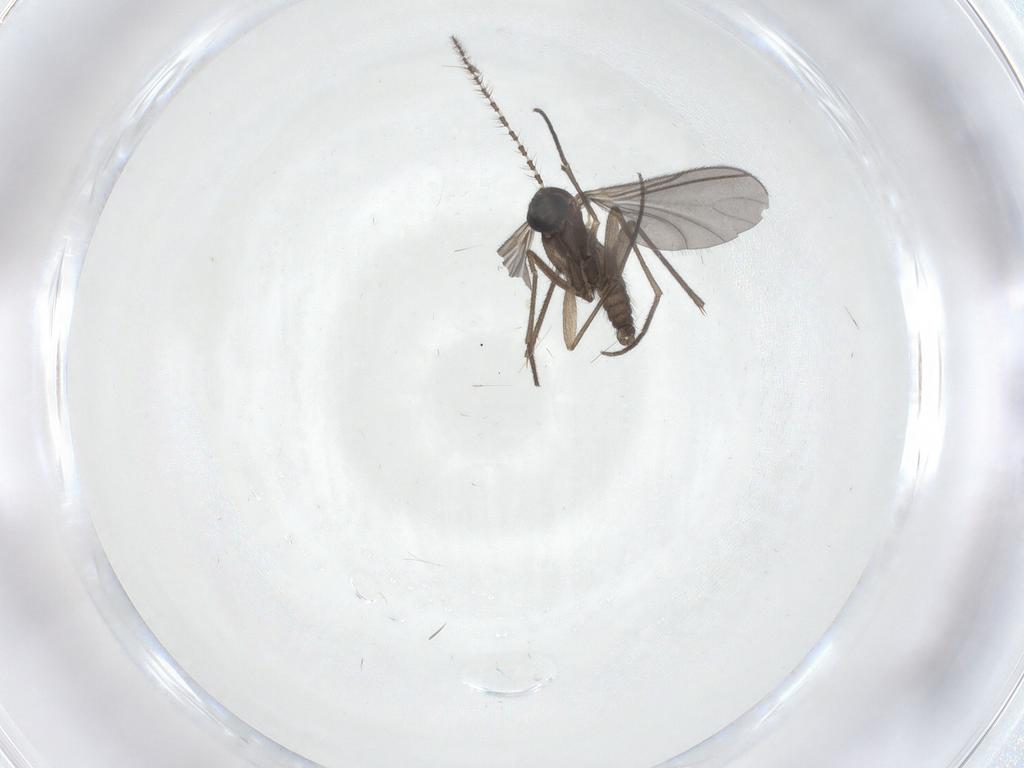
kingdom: Animalia
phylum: Arthropoda
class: Insecta
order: Diptera
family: Sciaridae
